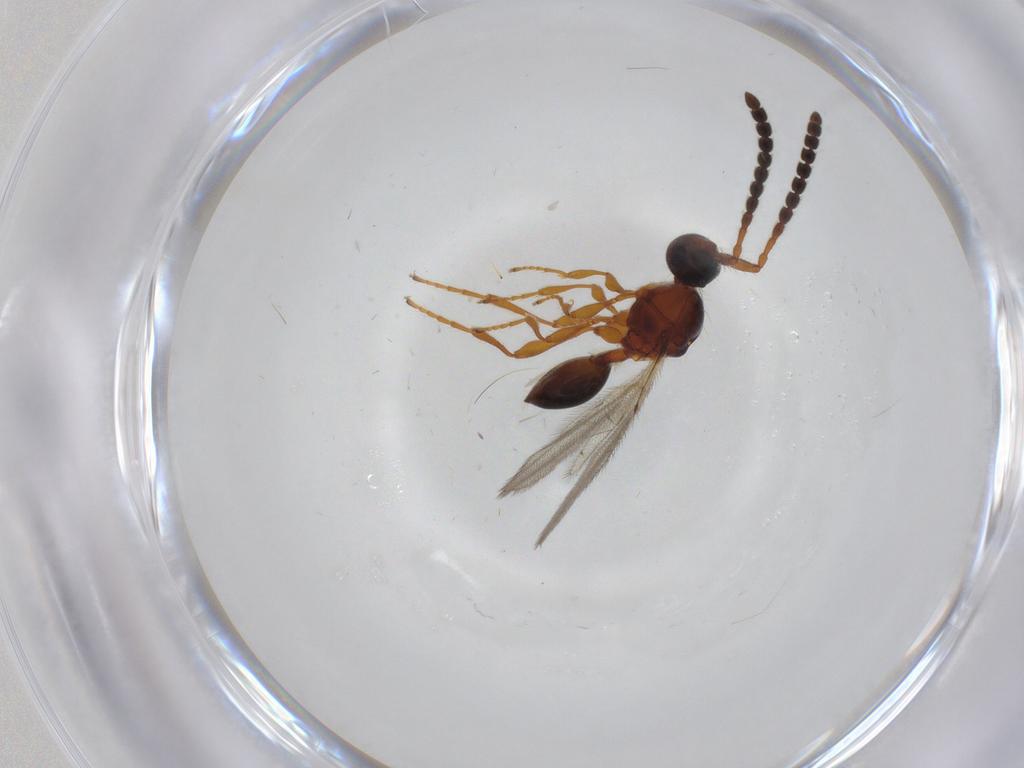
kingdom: Animalia
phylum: Arthropoda
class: Insecta
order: Hymenoptera
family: Diapriidae
